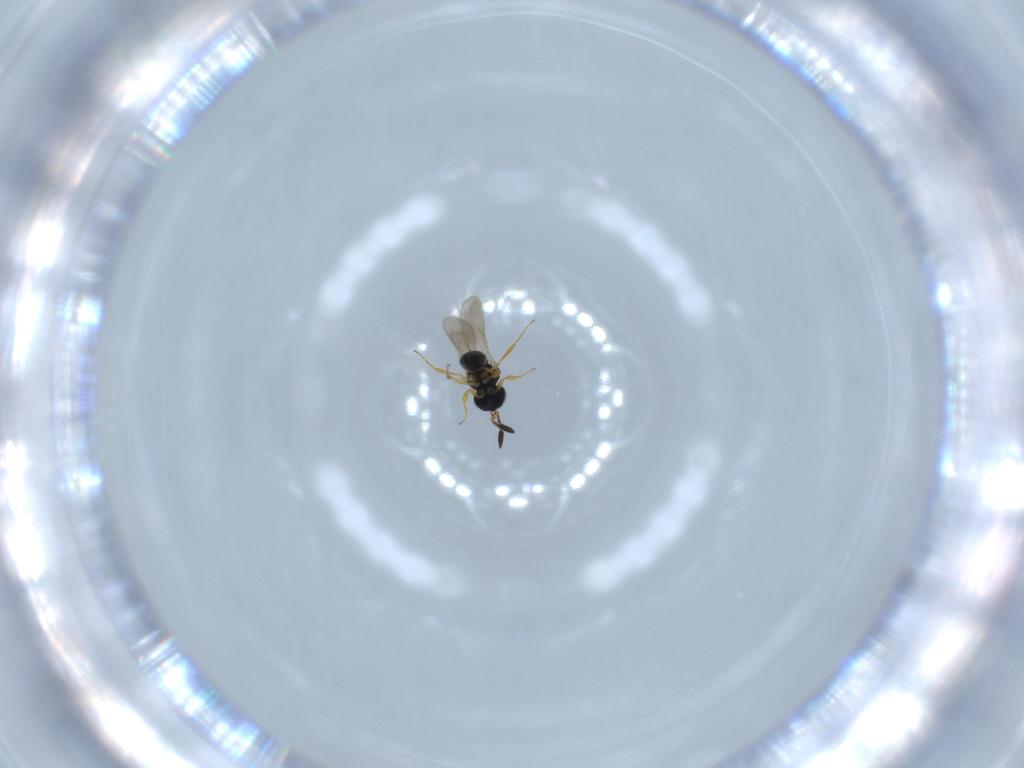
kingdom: Animalia
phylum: Arthropoda
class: Insecta
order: Hymenoptera
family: Scelionidae
